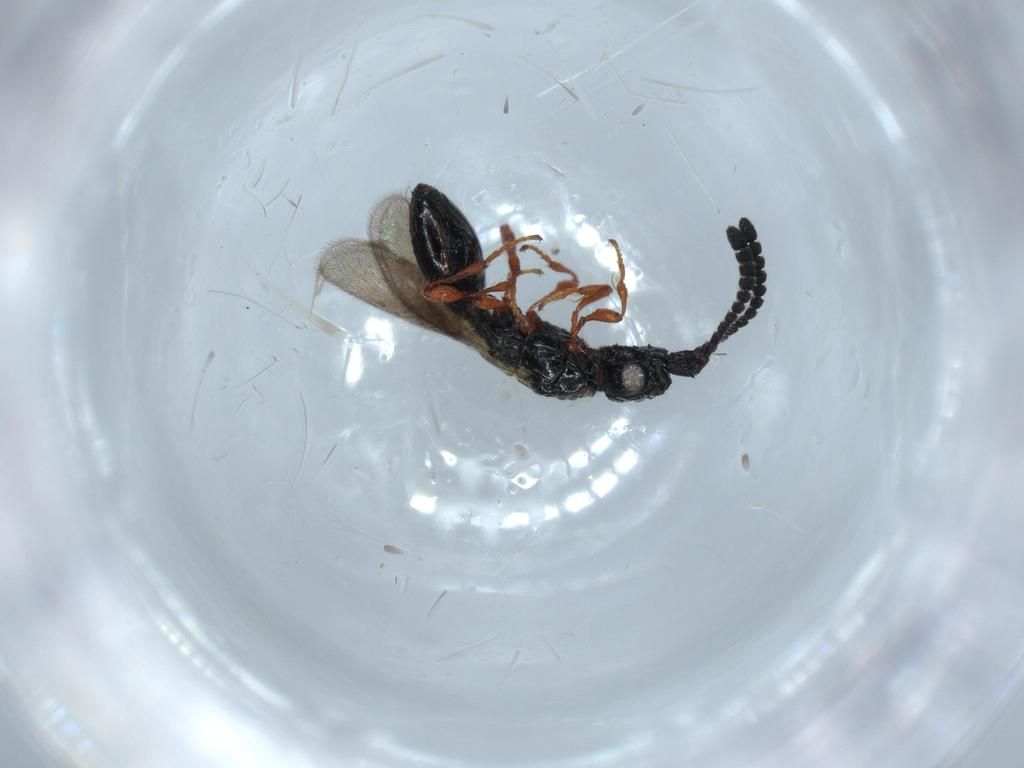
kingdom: Animalia
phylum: Arthropoda
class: Insecta
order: Hymenoptera
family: Diapriidae
